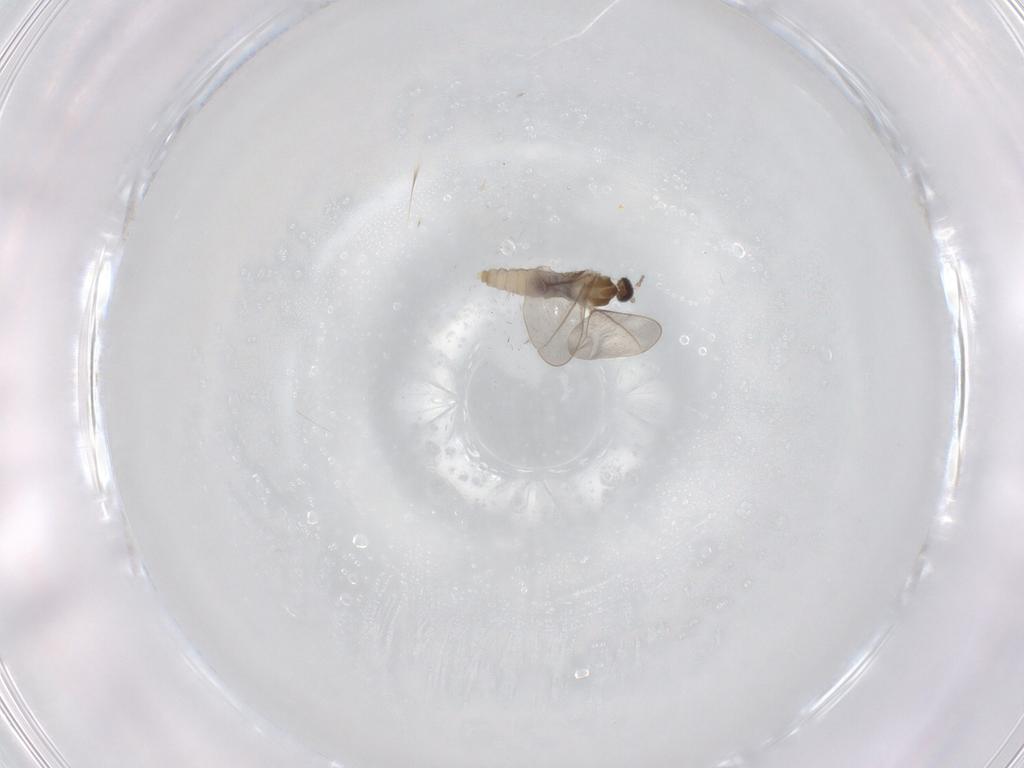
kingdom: Animalia
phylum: Arthropoda
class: Insecta
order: Diptera
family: Cecidomyiidae
